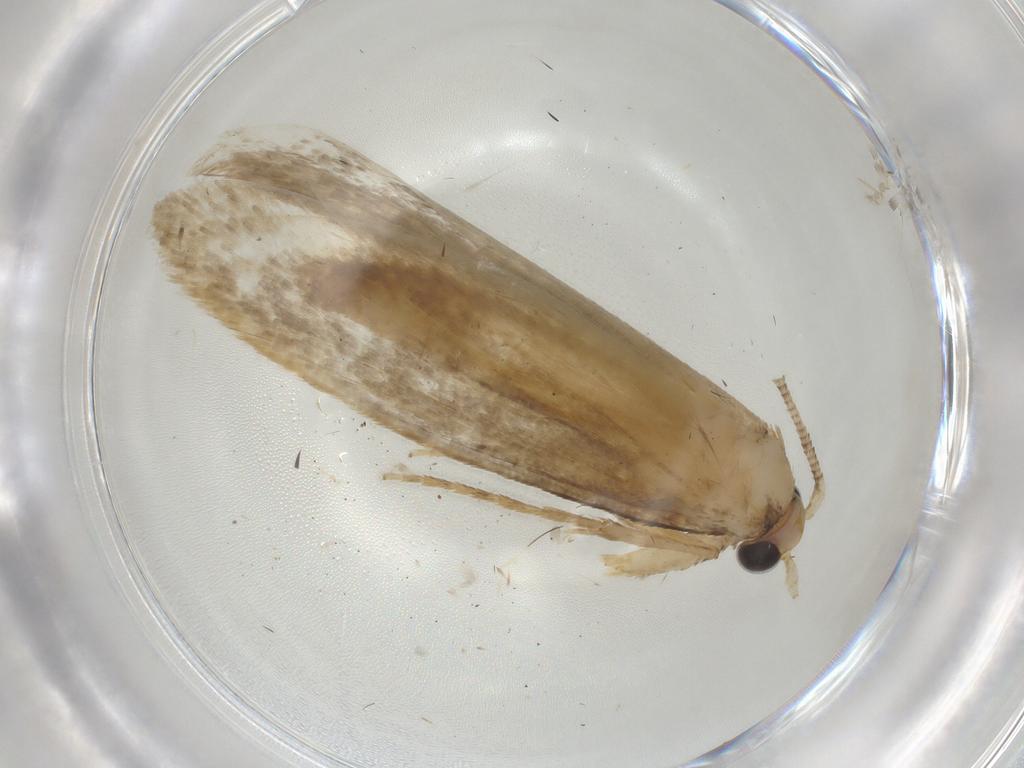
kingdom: Animalia
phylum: Arthropoda
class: Insecta
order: Lepidoptera
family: Tineidae
